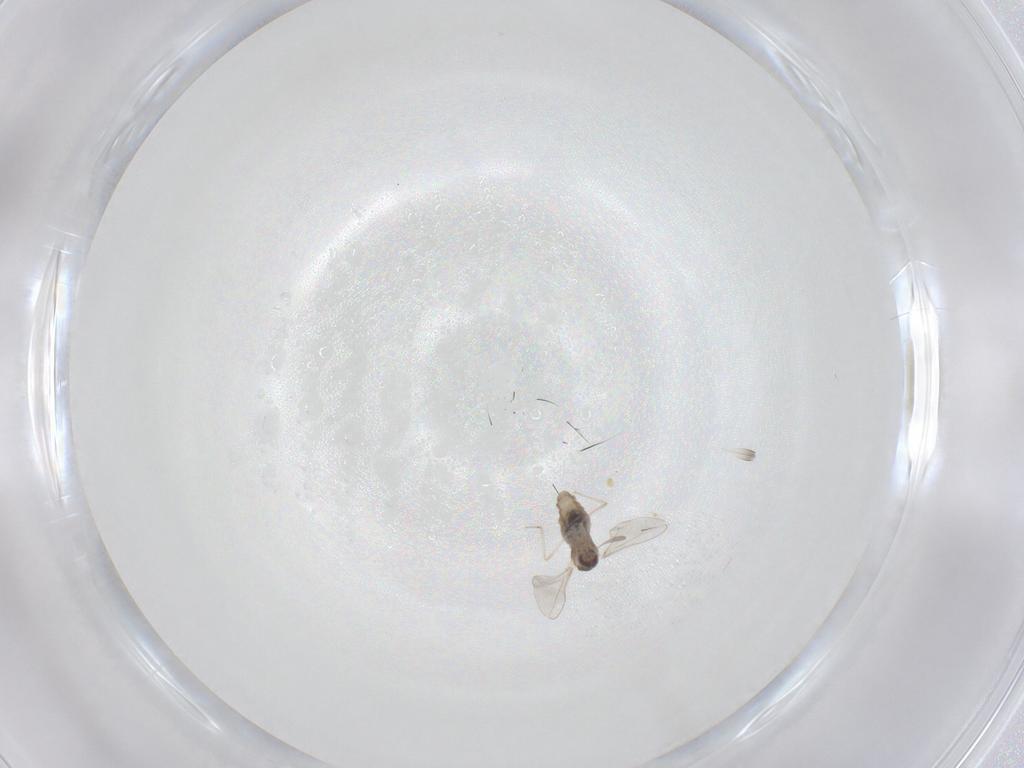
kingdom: Animalia
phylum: Arthropoda
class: Insecta
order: Diptera
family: Cecidomyiidae
